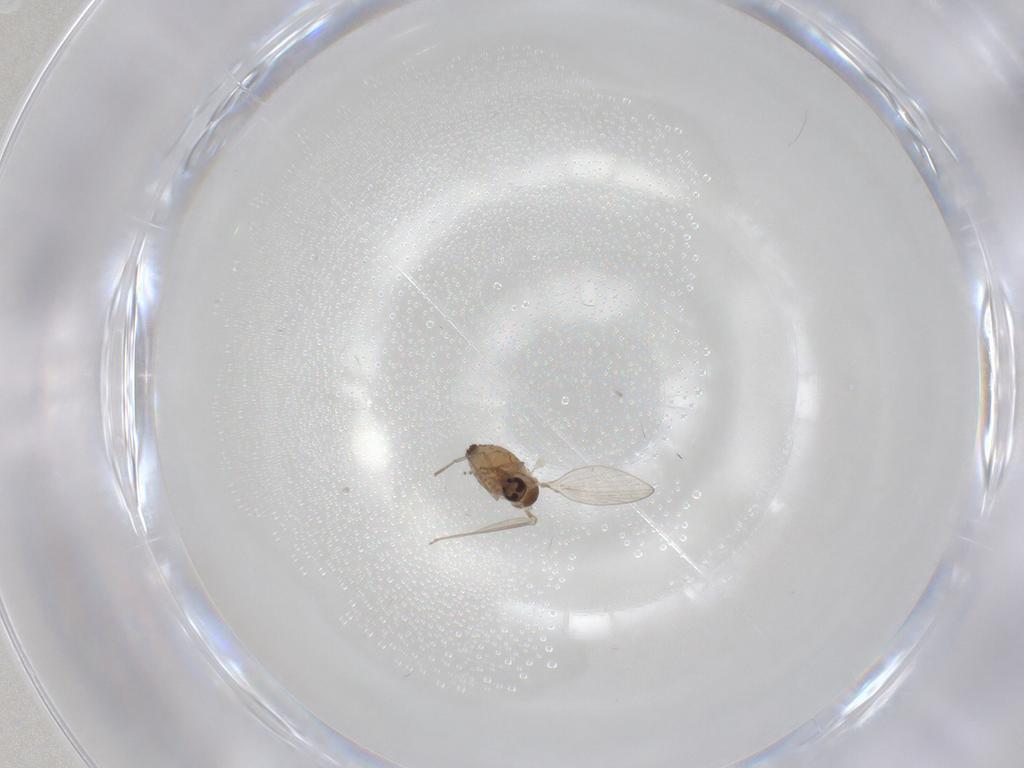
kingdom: Animalia
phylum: Arthropoda
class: Insecta
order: Diptera
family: Psychodidae
